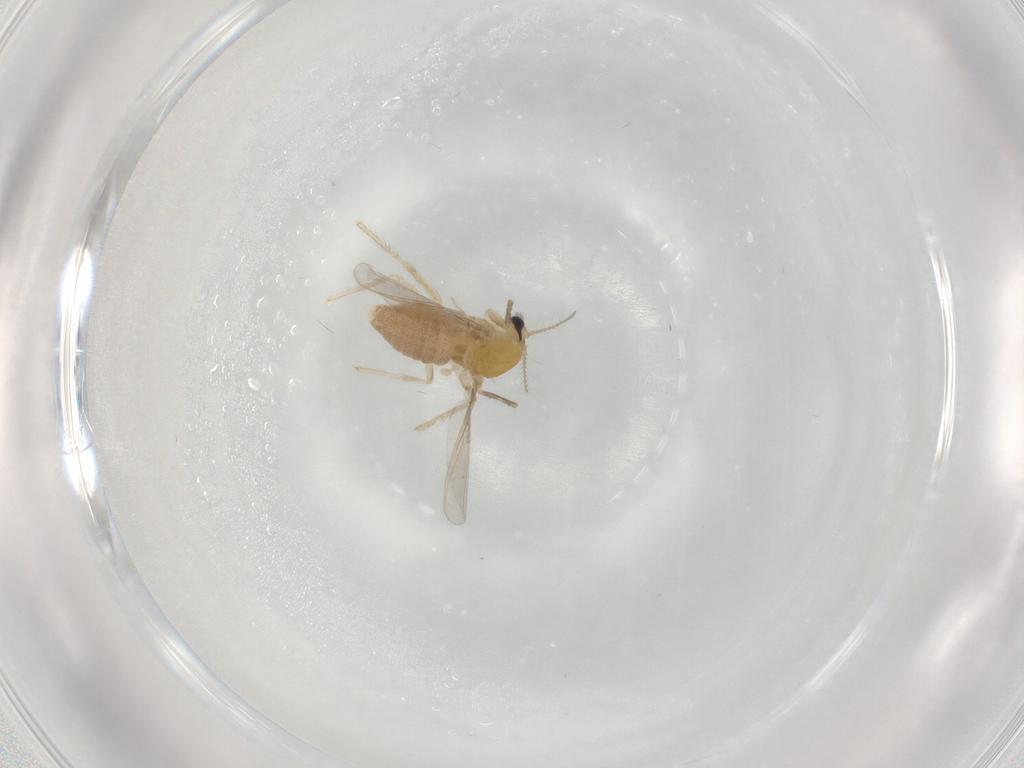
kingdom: Animalia
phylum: Arthropoda
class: Insecta
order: Diptera
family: Chironomidae
